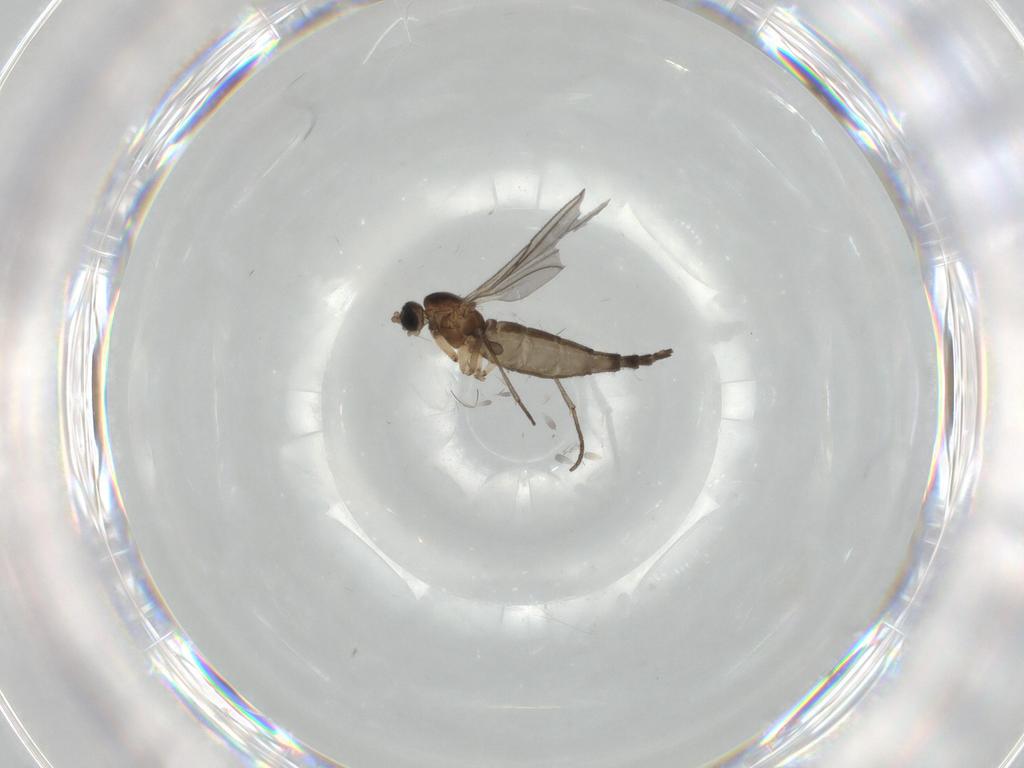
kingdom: Animalia
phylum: Arthropoda
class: Insecta
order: Diptera
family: Sciaridae
